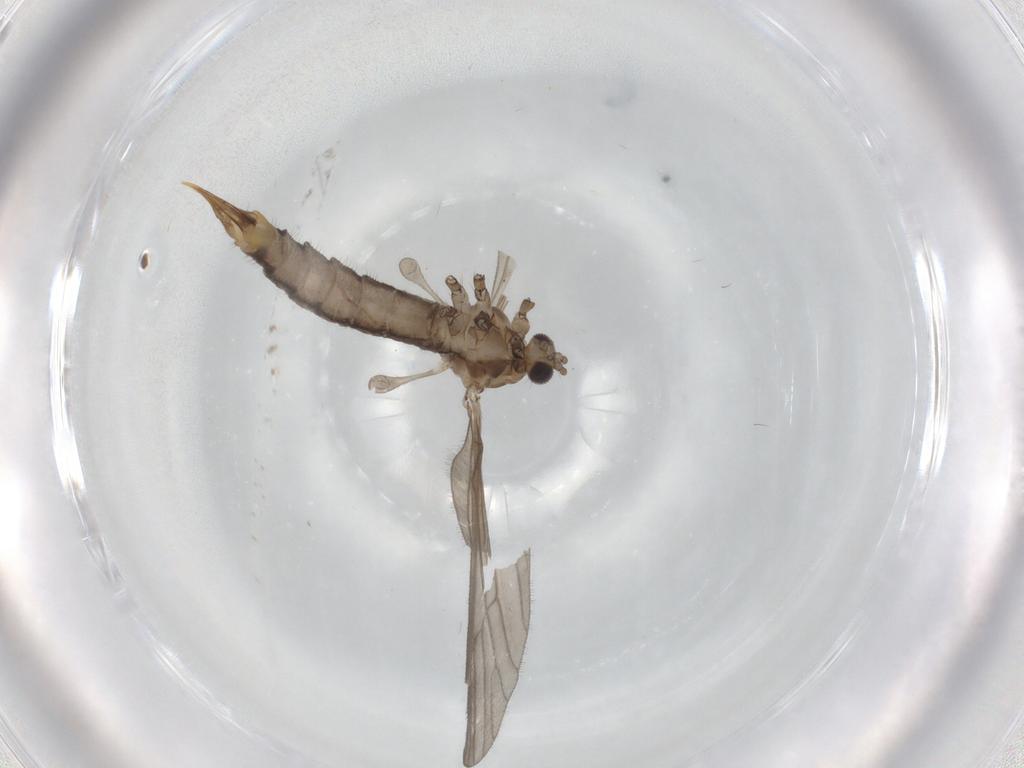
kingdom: Animalia
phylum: Arthropoda
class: Insecta
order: Diptera
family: Limoniidae
